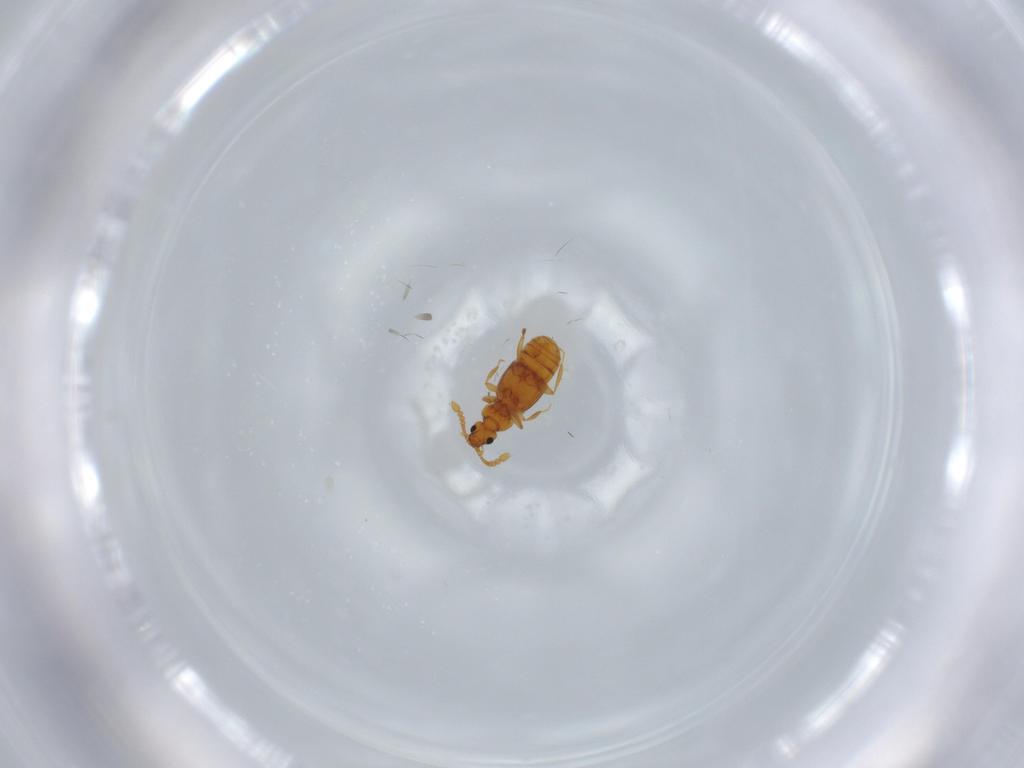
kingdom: Animalia
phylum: Arthropoda
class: Insecta
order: Coleoptera
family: Staphylinidae
